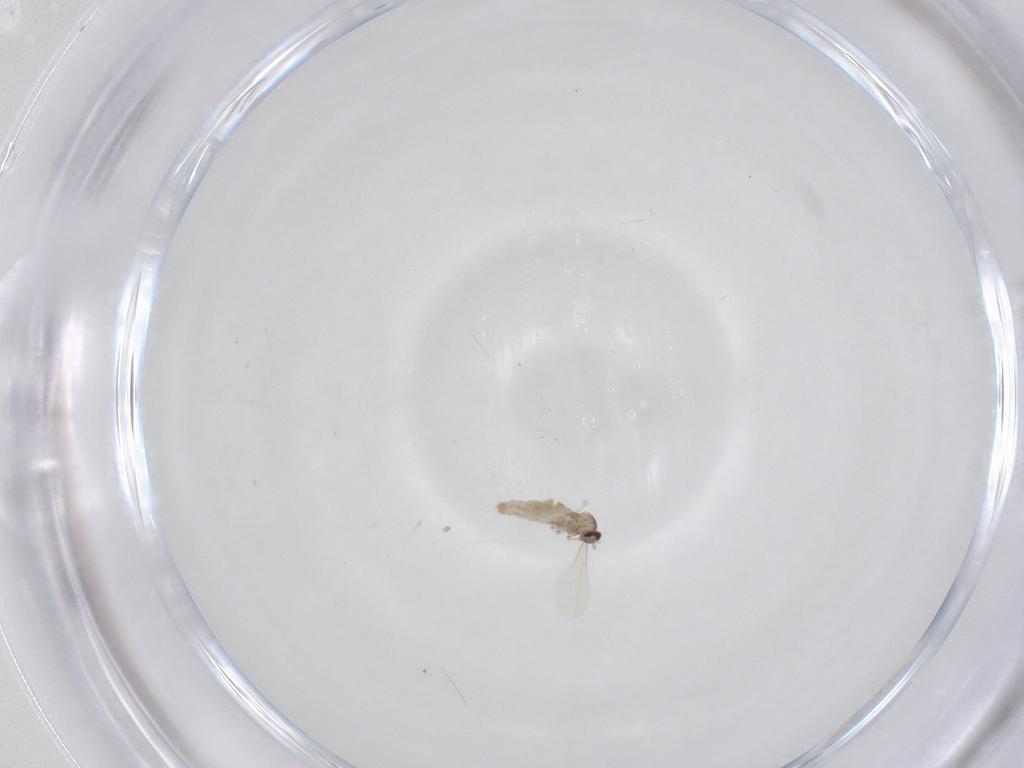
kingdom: Animalia
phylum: Arthropoda
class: Insecta
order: Diptera
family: Cecidomyiidae
